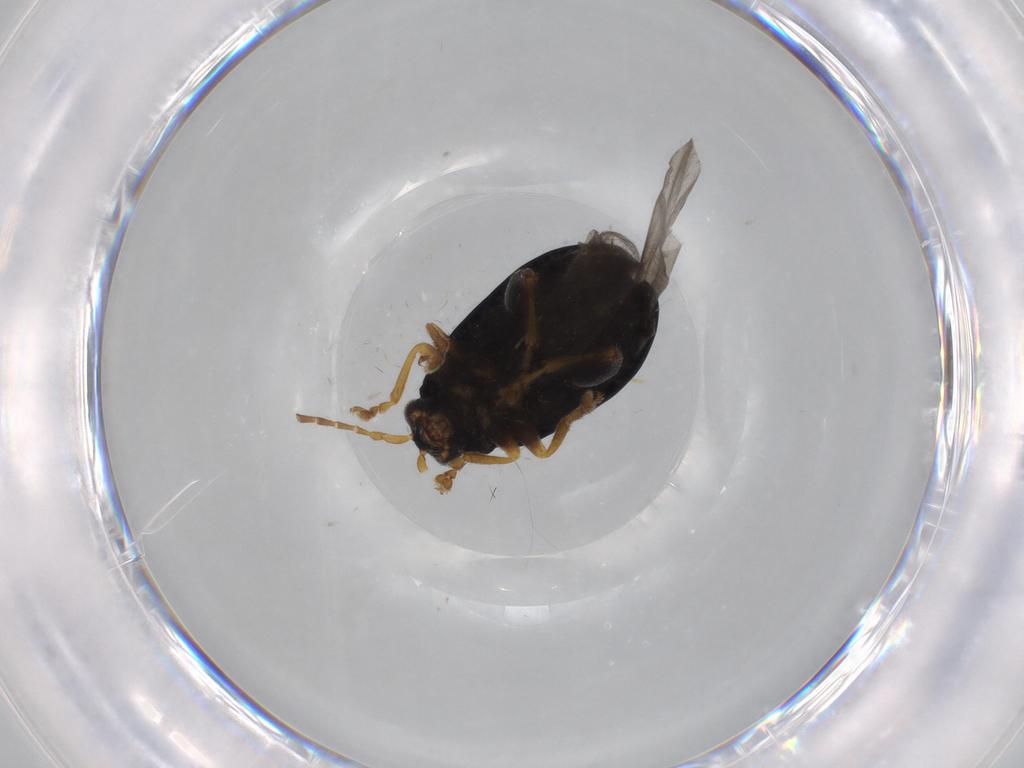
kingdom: Animalia
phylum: Arthropoda
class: Insecta
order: Coleoptera
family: Chrysomelidae
